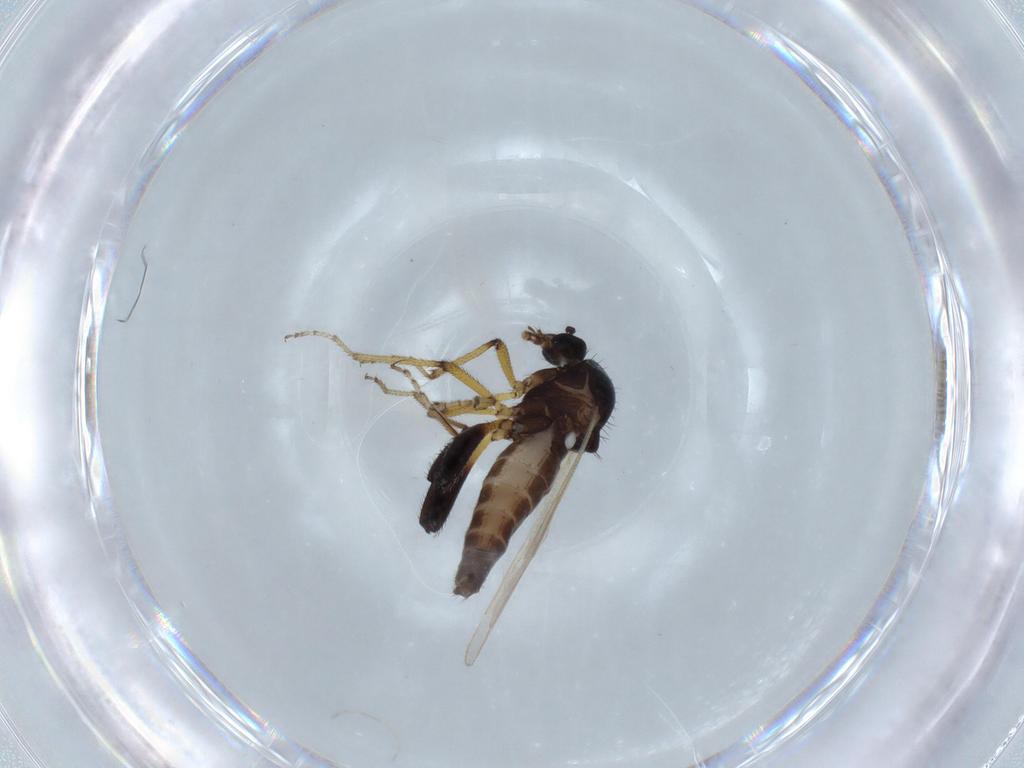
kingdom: Animalia
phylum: Arthropoda
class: Insecta
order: Diptera
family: Ceratopogonidae
